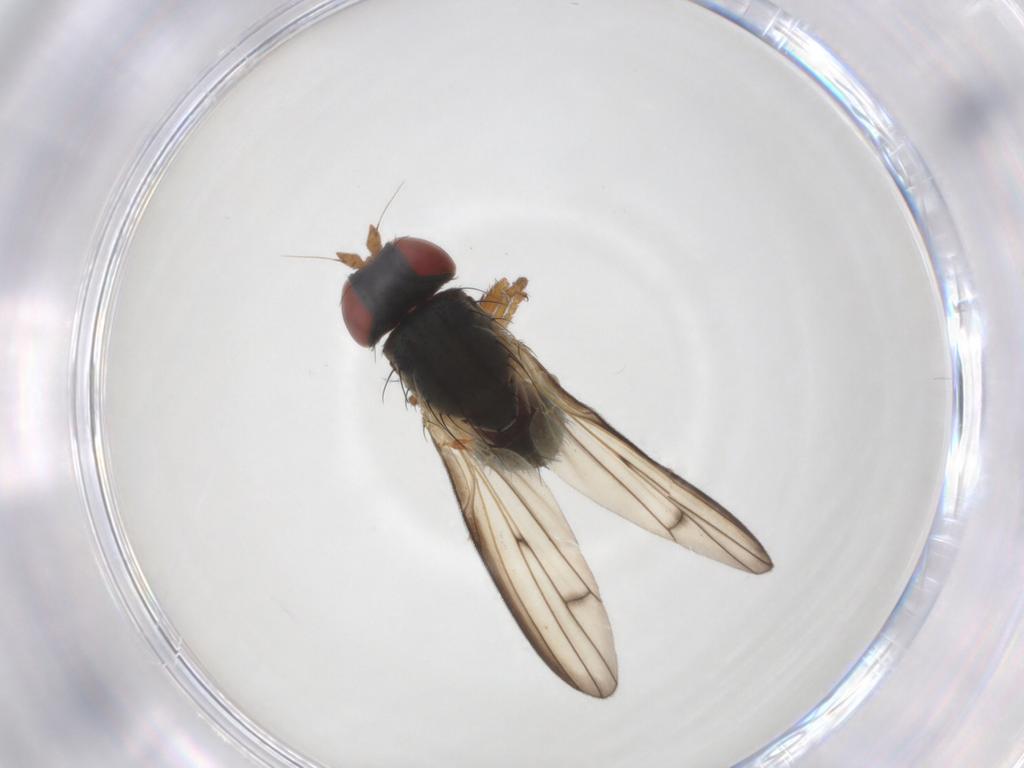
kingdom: Animalia
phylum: Arthropoda
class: Insecta
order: Diptera
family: Chamaemyiidae
